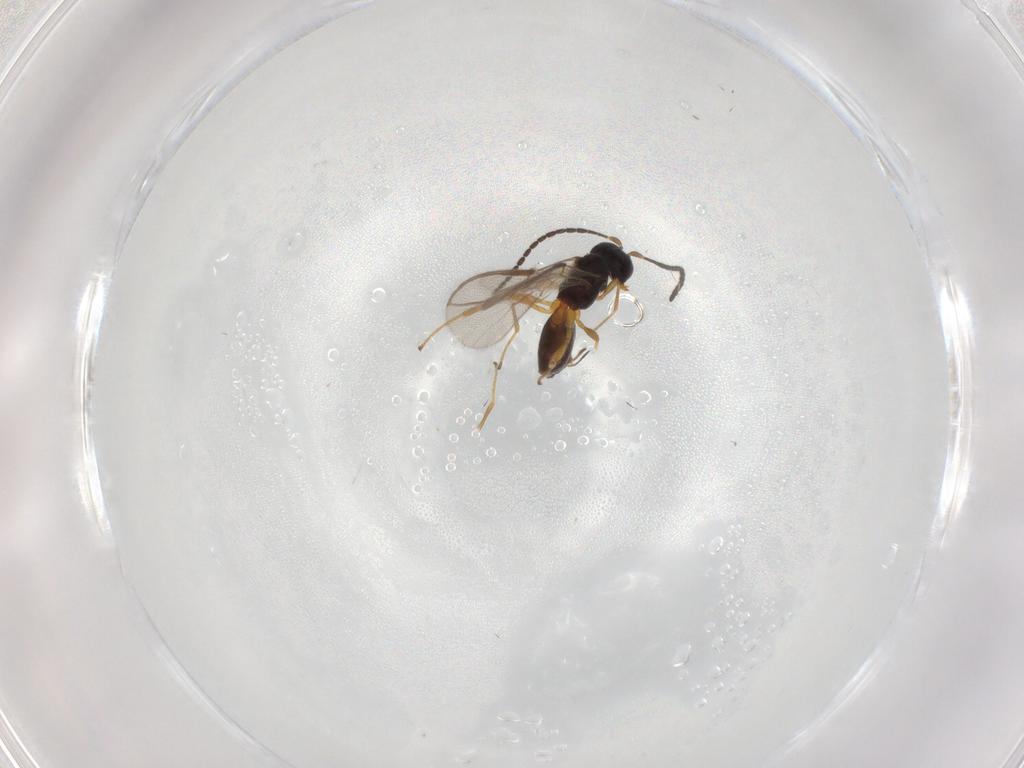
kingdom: Animalia
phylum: Arthropoda
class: Insecta
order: Hymenoptera
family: Braconidae
